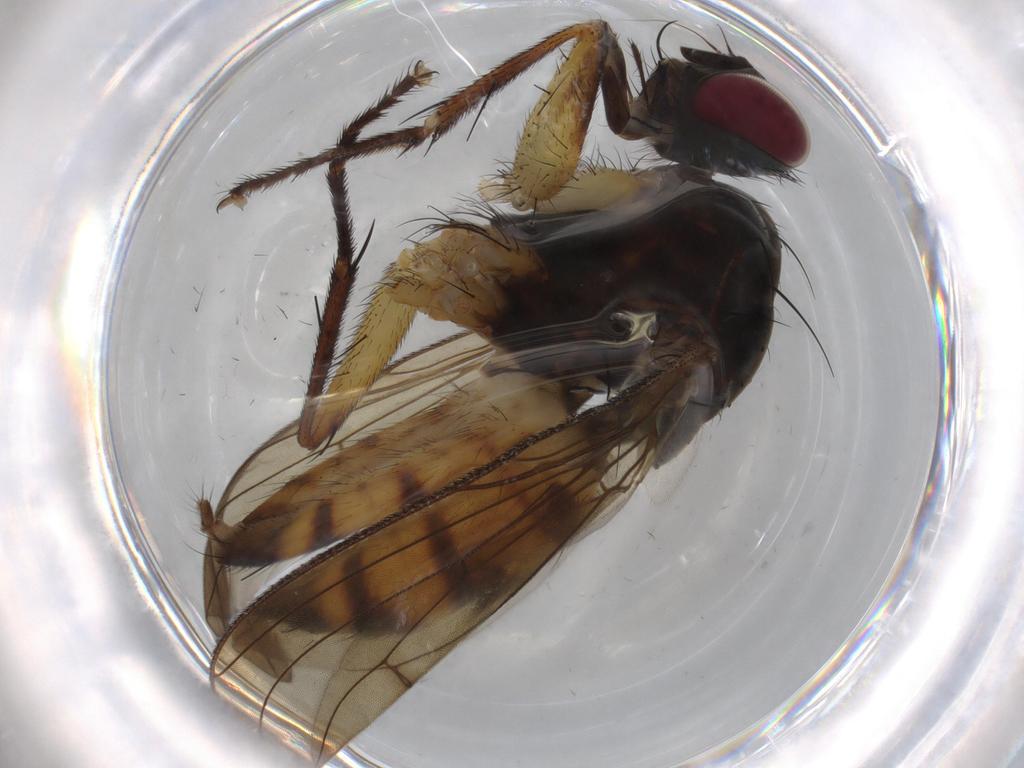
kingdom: Animalia
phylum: Arthropoda
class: Insecta
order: Diptera
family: Muscidae
